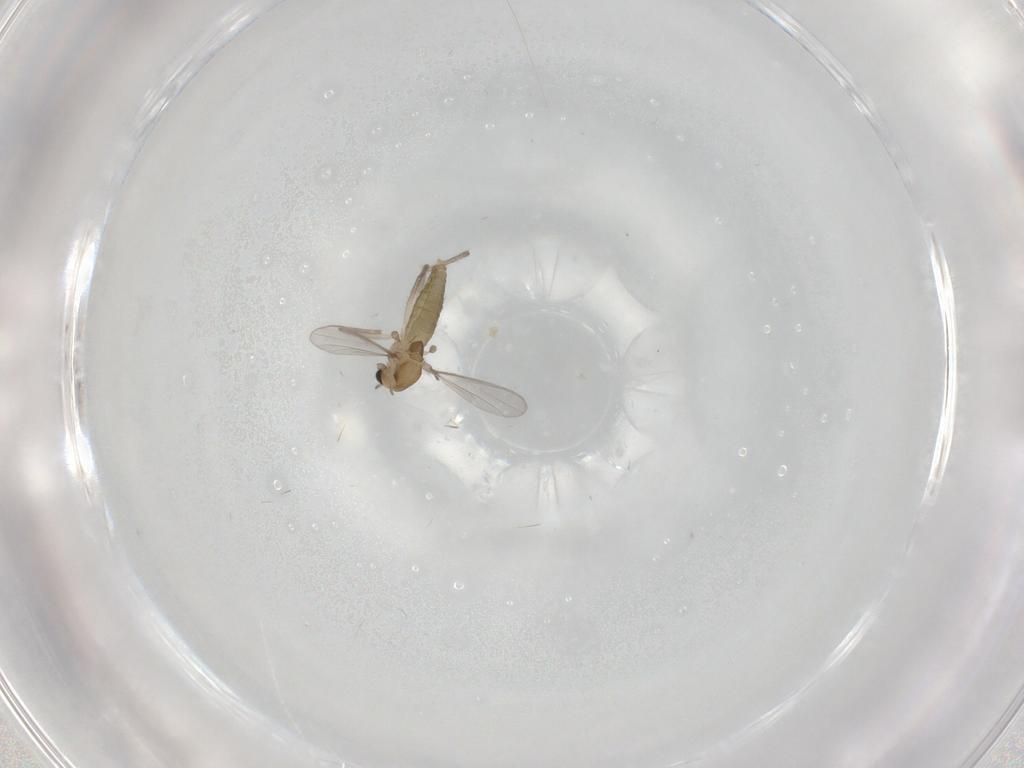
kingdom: Animalia
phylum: Arthropoda
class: Insecta
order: Diptera
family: Chironomidae
